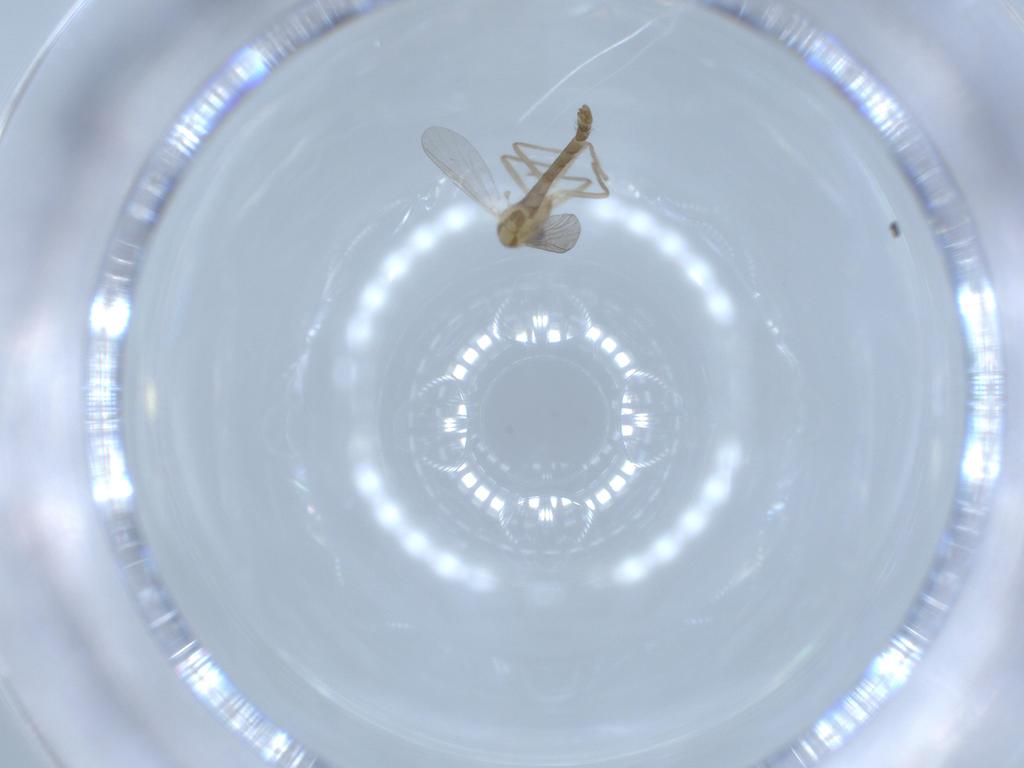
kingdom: Animalia
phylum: Arthropoda
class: Insecta
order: Diptera
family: Chironomidae
